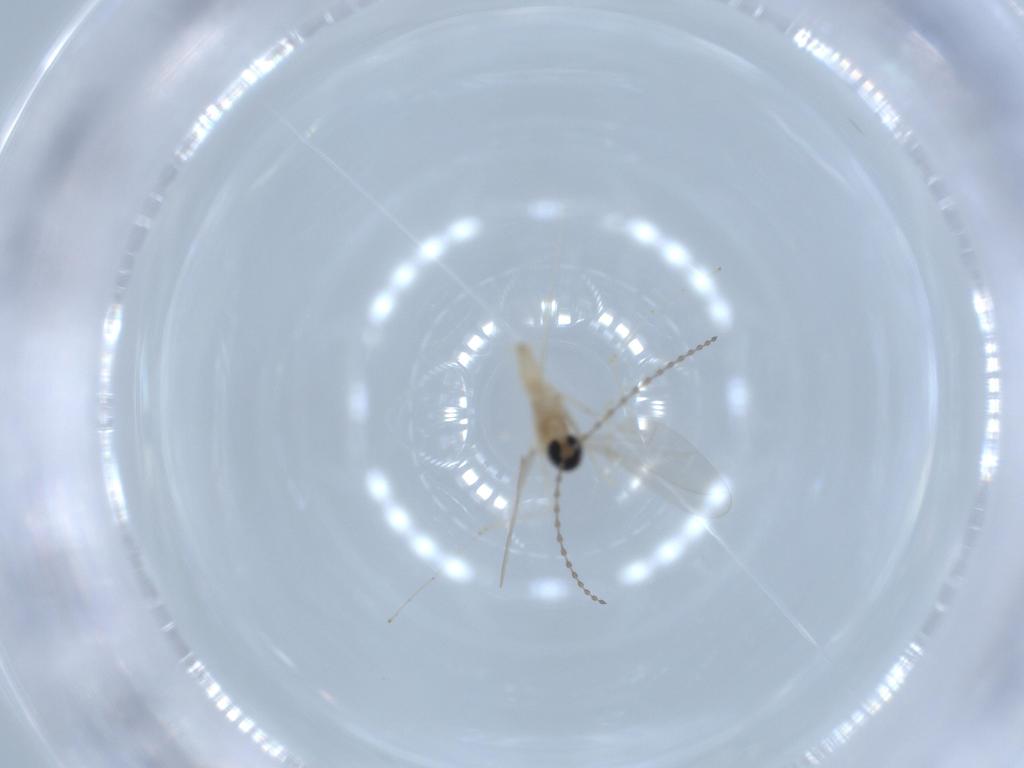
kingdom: Animalia
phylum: Arthropoda
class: Insecta
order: Diptera
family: Cecidomyiidae
